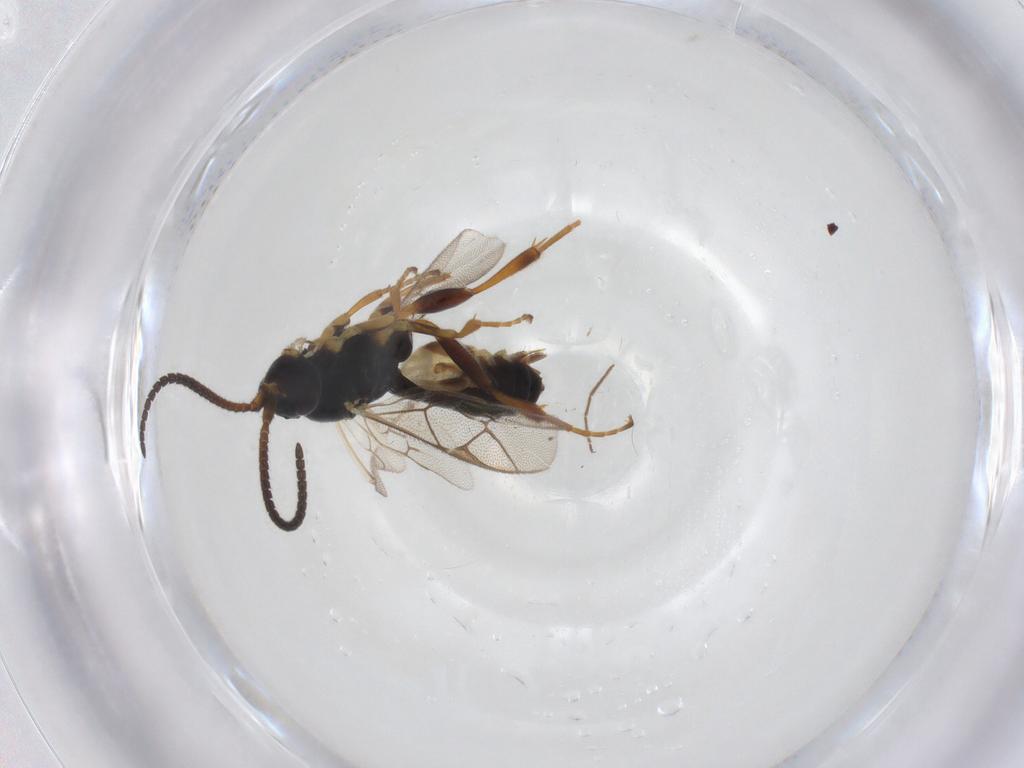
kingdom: Animalia
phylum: Arthropoda
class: Insecta
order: Hymenoptera
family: Ichneumonidae
